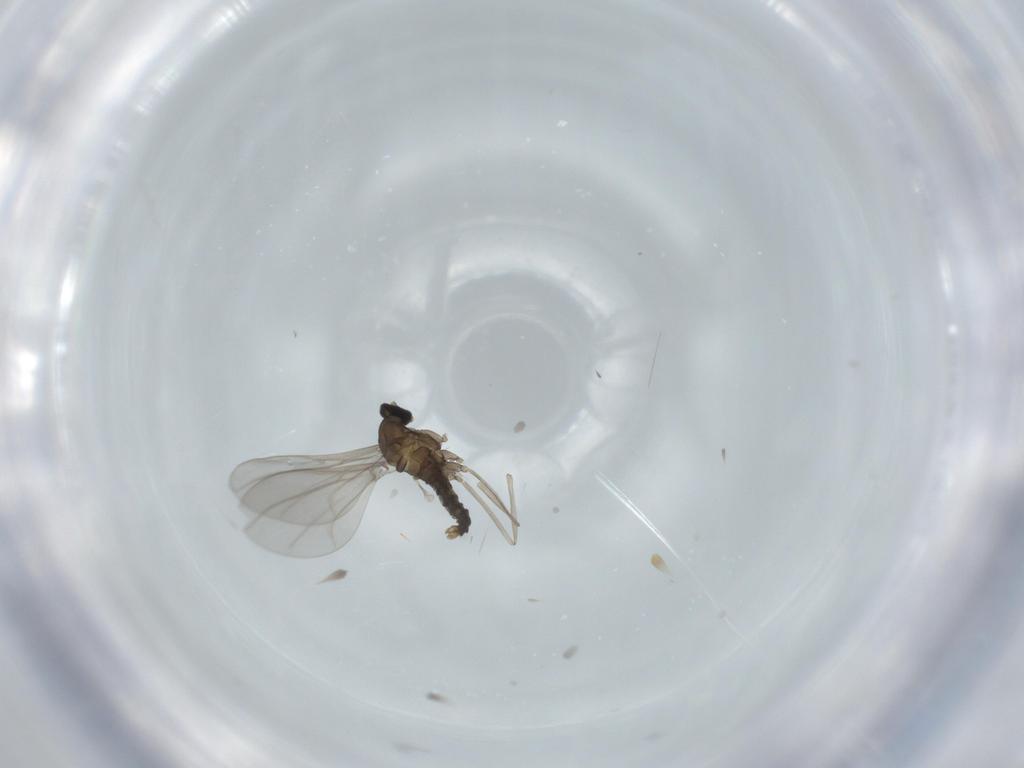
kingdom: Animalia
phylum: Arthropoda
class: Insecta
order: Diptera
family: Cecidomyiidae
